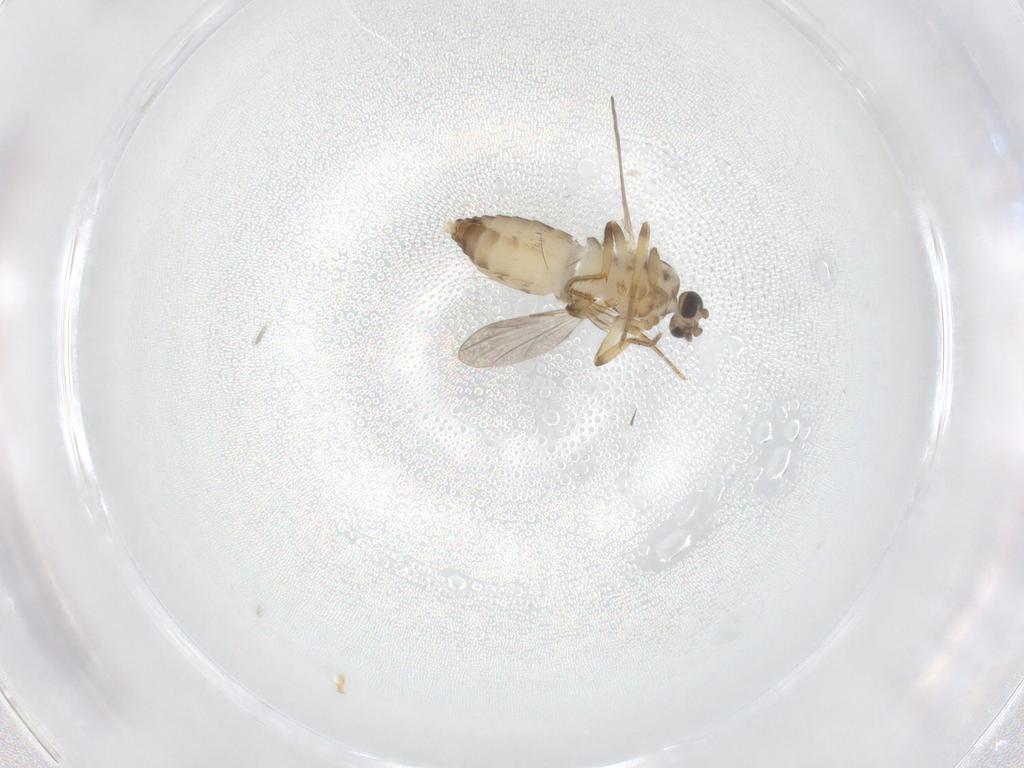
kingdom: Animalia
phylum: Arthropoda
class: Insecta
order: Diptera
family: Ceratopogonidae
